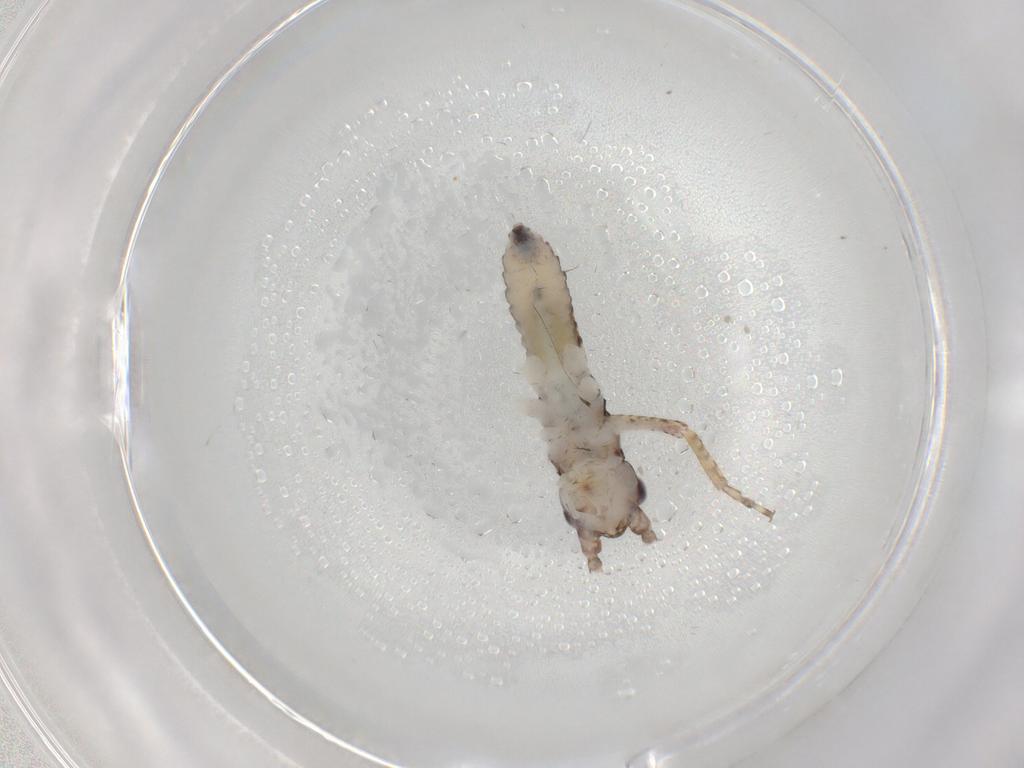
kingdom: Animalia
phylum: Arthropoda
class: Insecta
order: Orthoptera
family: Gryllidae
